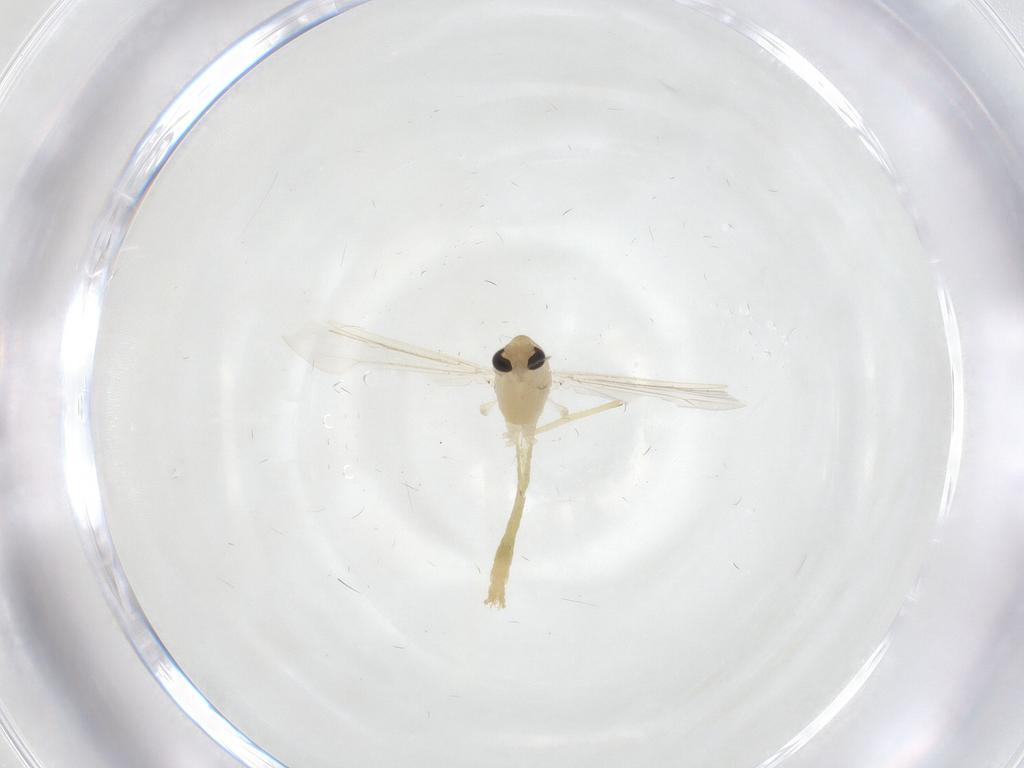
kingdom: Animalia
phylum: Arthropoda
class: Insecta
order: Diptera
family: Chironomidae
